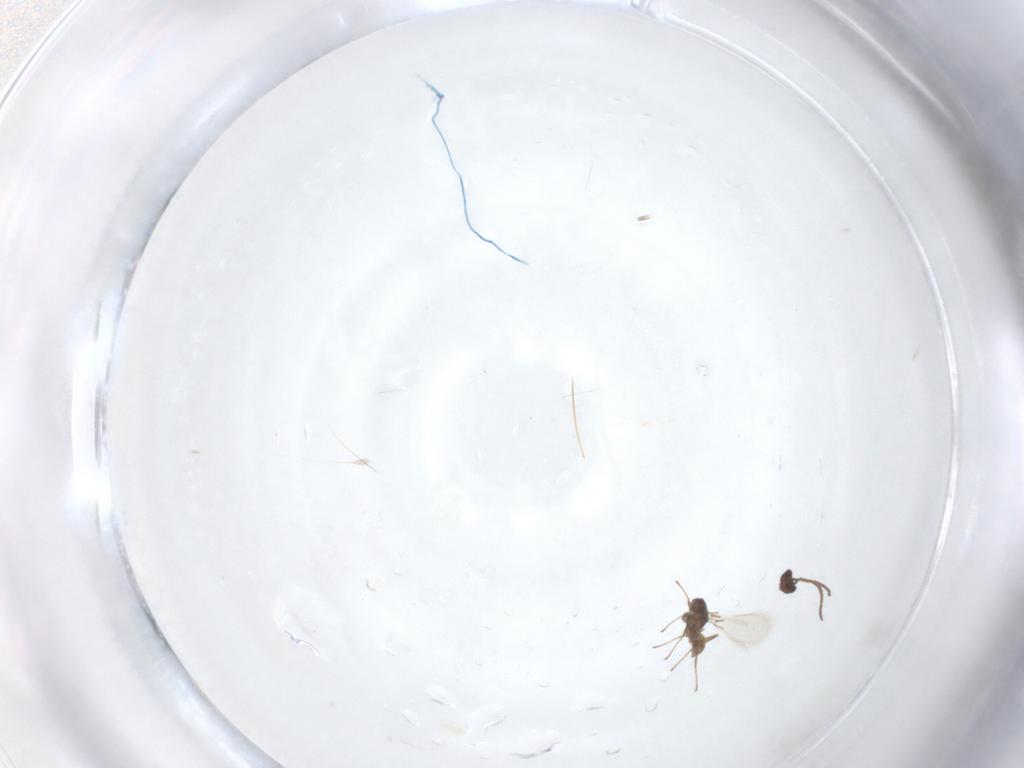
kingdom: Animalia
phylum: Arthropoda
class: Insecta
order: Hymenoptera
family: Mymaridae
